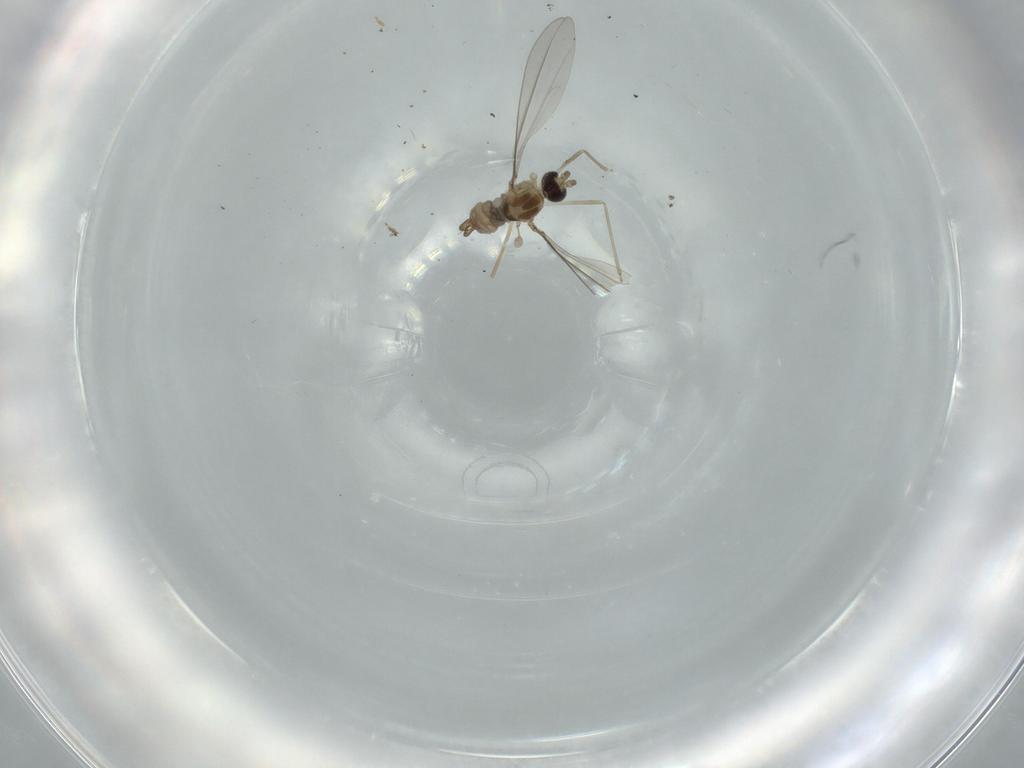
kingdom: Animalia
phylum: Arthropoda
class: Insecta
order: Diptera
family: Cecidomyiidae
